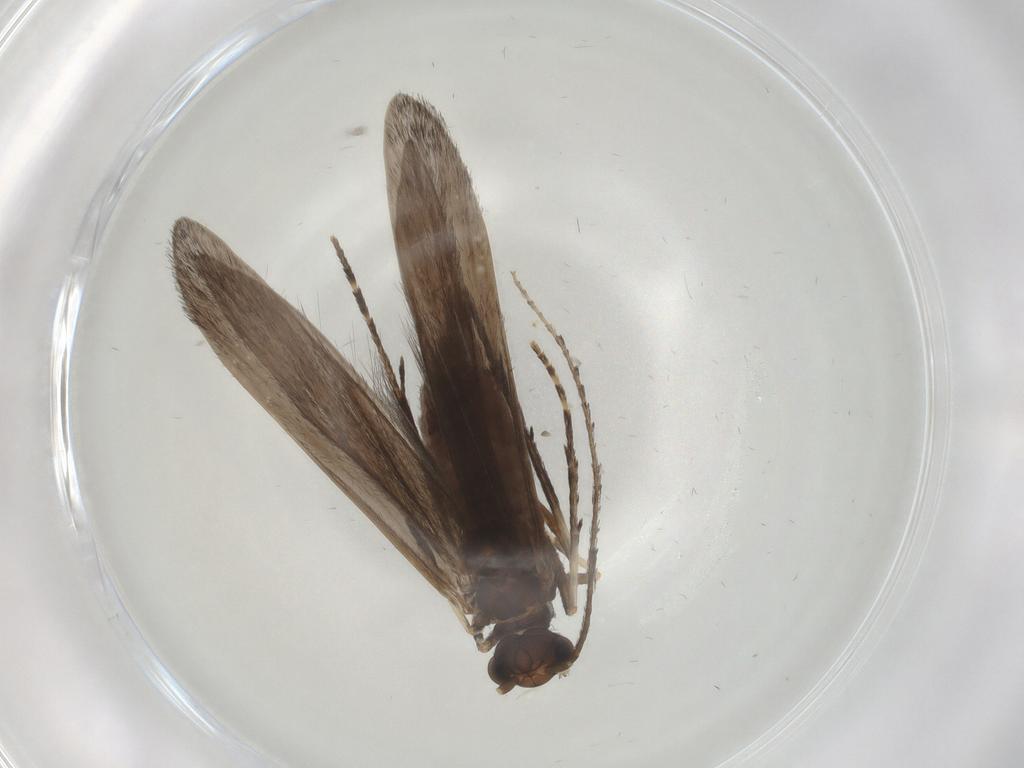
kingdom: Animalia
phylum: Arthropoda
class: Insecta
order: Trichoptera
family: Xiphocentronidae
